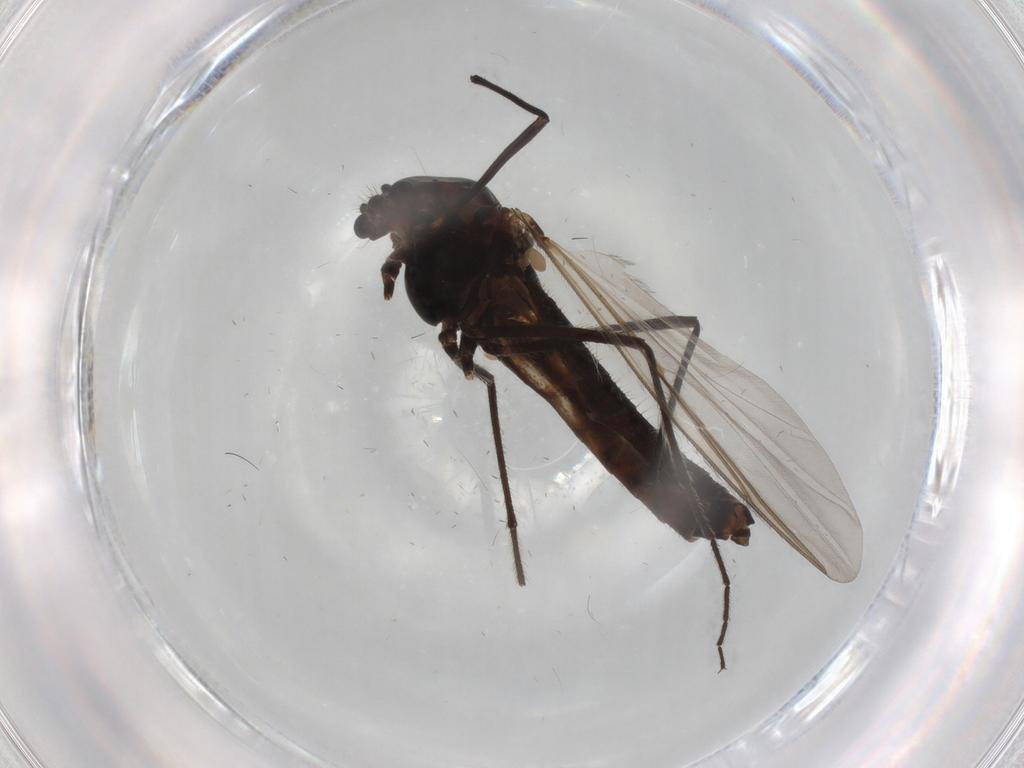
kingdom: Animalia
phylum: Arthropoda
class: Insecta
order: Diptera
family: Chironomidae
